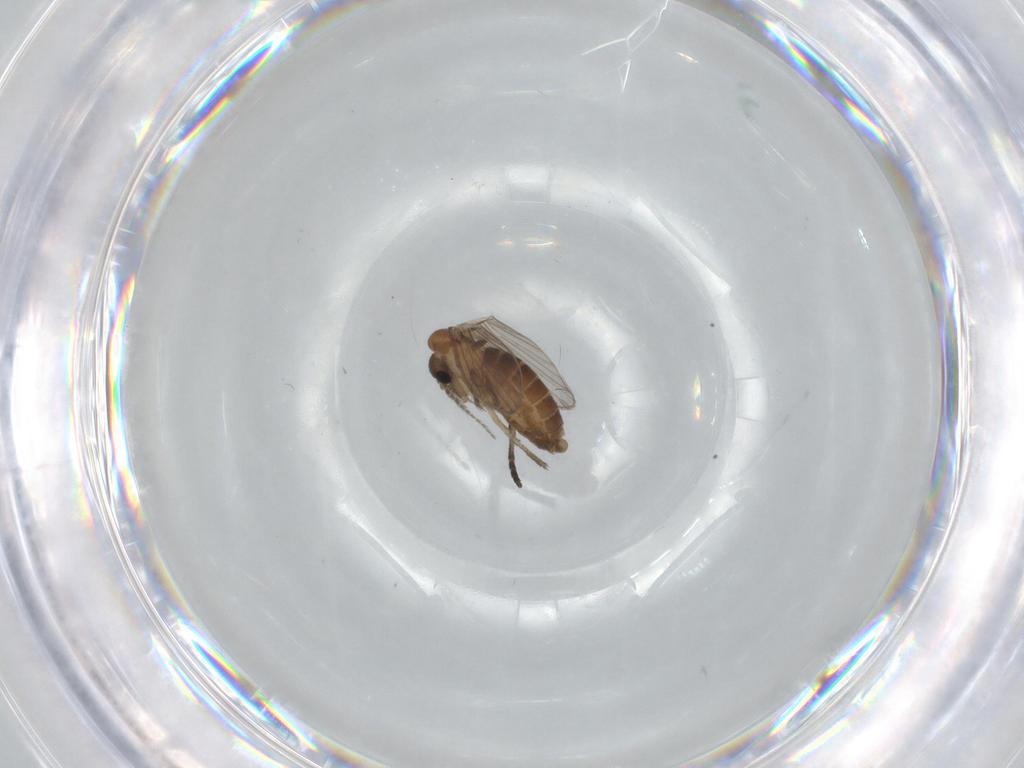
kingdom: Animalia
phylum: Arthropoda
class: Insecta
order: Diptera
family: Psychodidae
